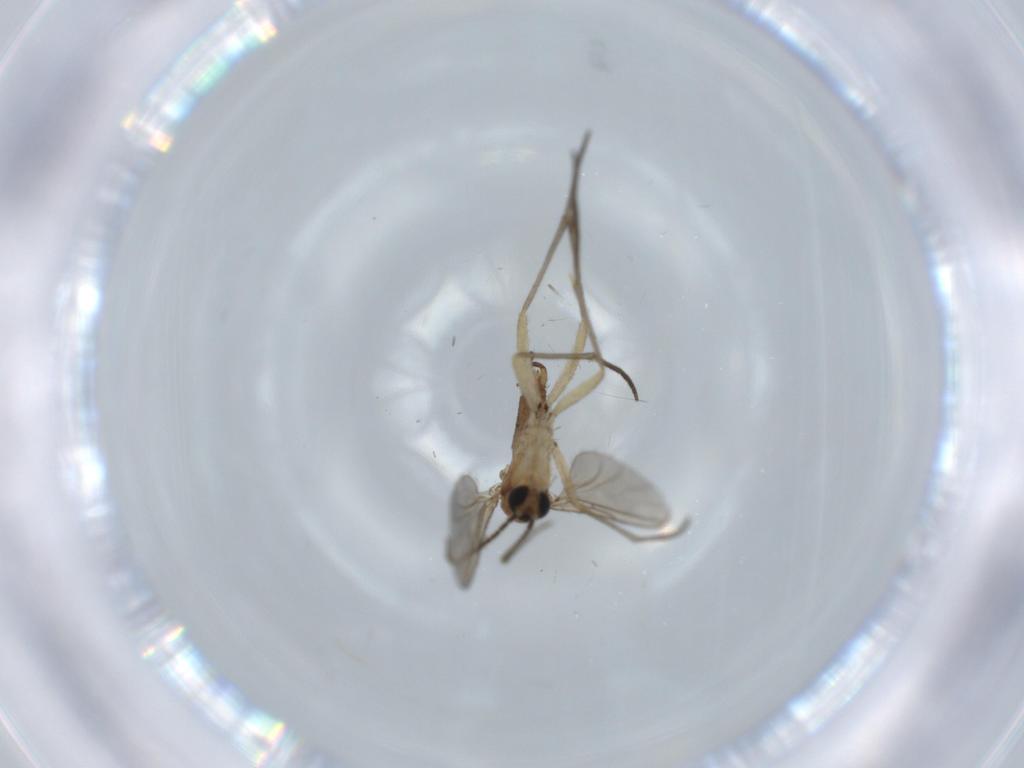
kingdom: Animalia
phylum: Arthropoda
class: Insecta
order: Diptera
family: Sciaridae
